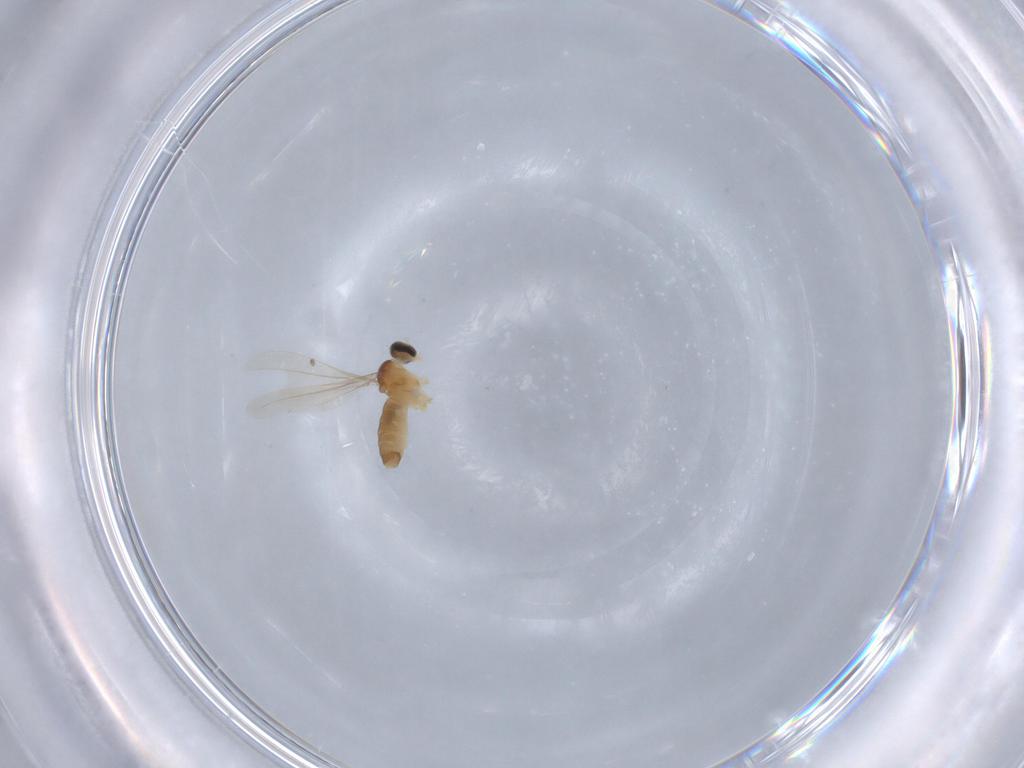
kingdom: Animalia
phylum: Arthropoda
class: Insecta
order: Diptera
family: Cecidomyiidae
